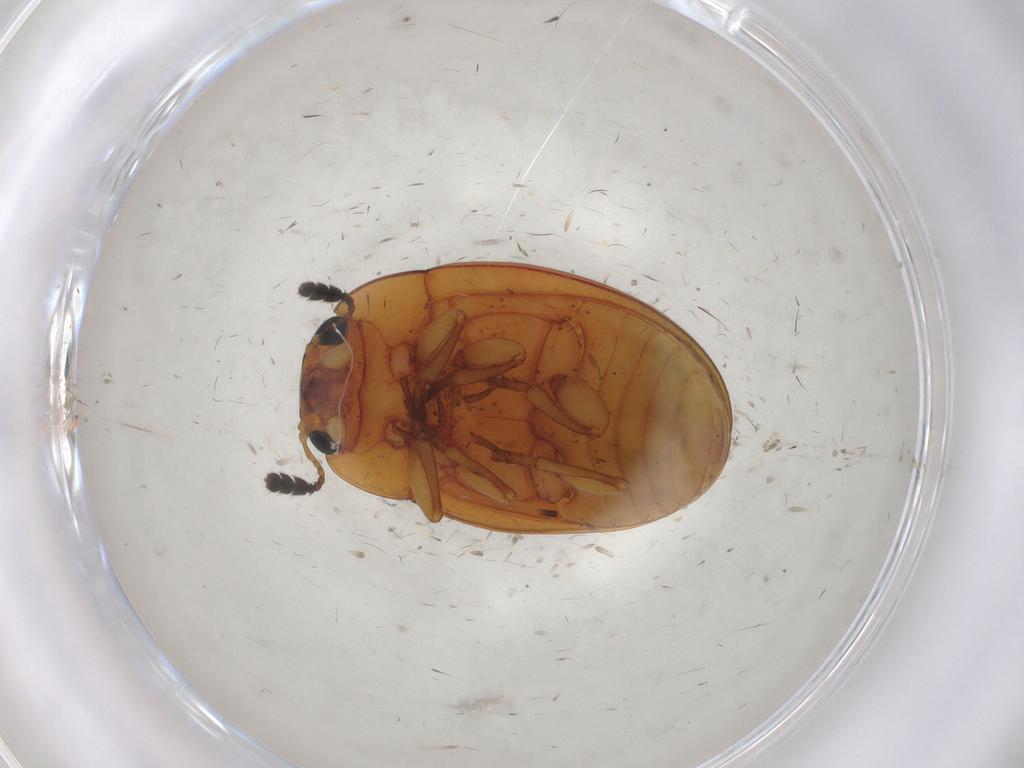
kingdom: Animalia
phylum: Arthropoda
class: Insecta
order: Coleoptera
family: Endomychidae
